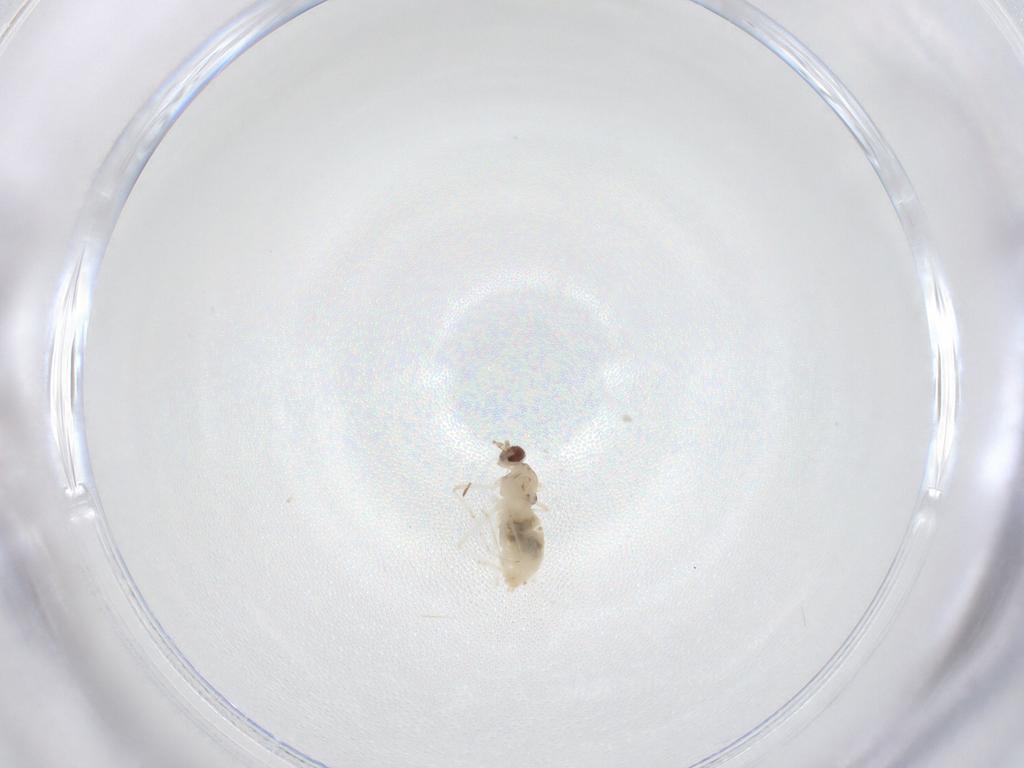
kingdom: Animalia
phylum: Arthropoda
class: Insecta
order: Diptera
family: Cecidomyiidae
